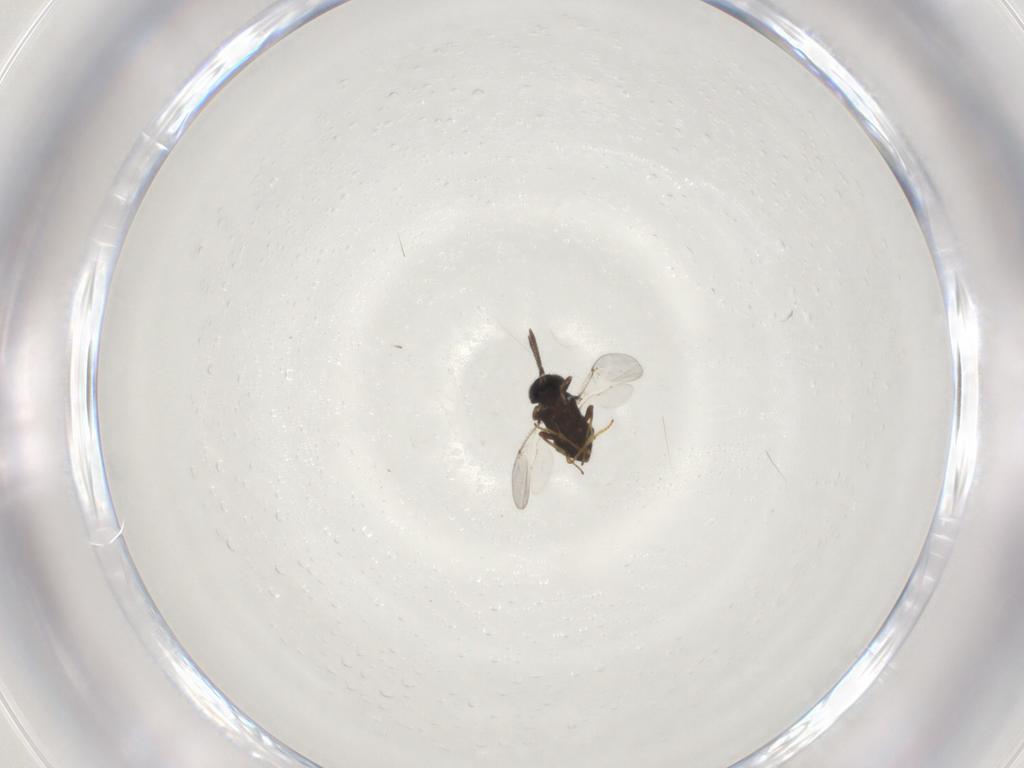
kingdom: Animalia
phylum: Arthropoda
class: Insecta
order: Hymenoptera
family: Encyrtidae
